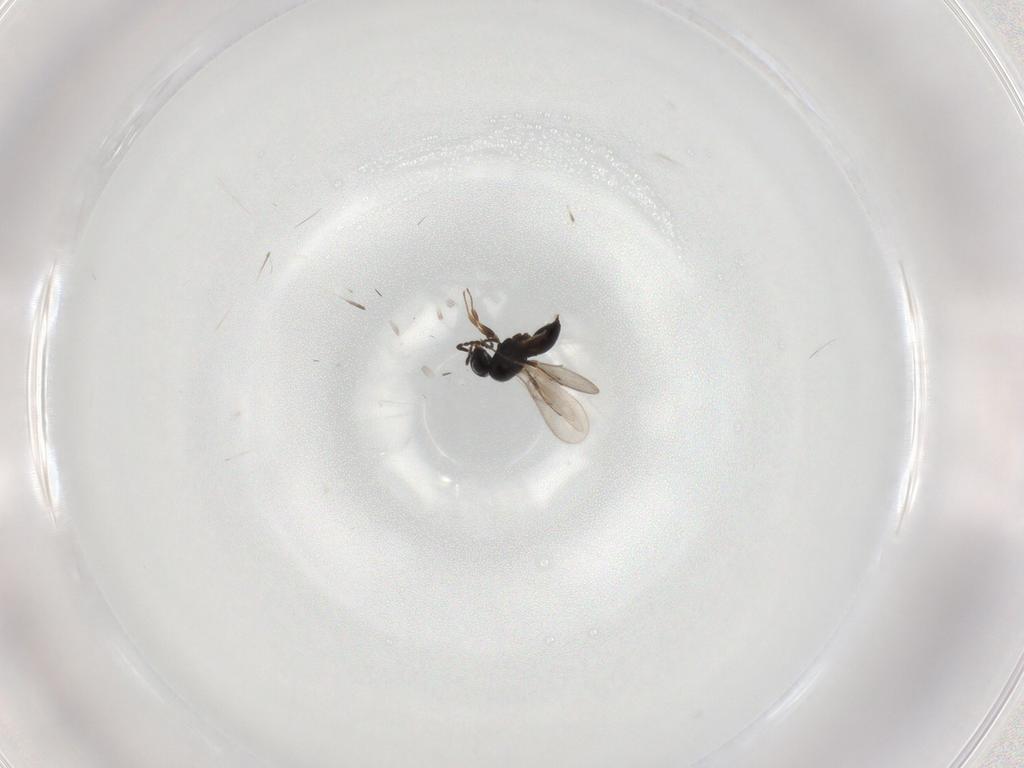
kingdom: Animalia
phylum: Arthropoda
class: Insecta
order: Hymenoptera
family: Scelionidae
